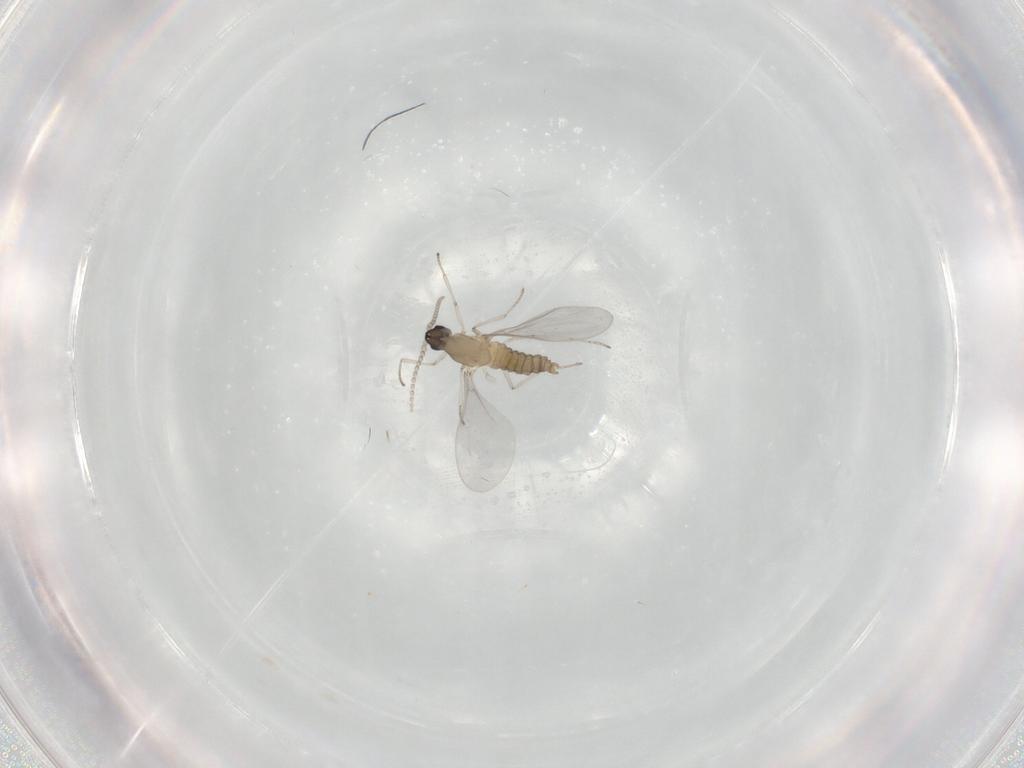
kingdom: Animalia
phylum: Arthropoda
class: Insecta
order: Diptera
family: Cecidomyiidae
